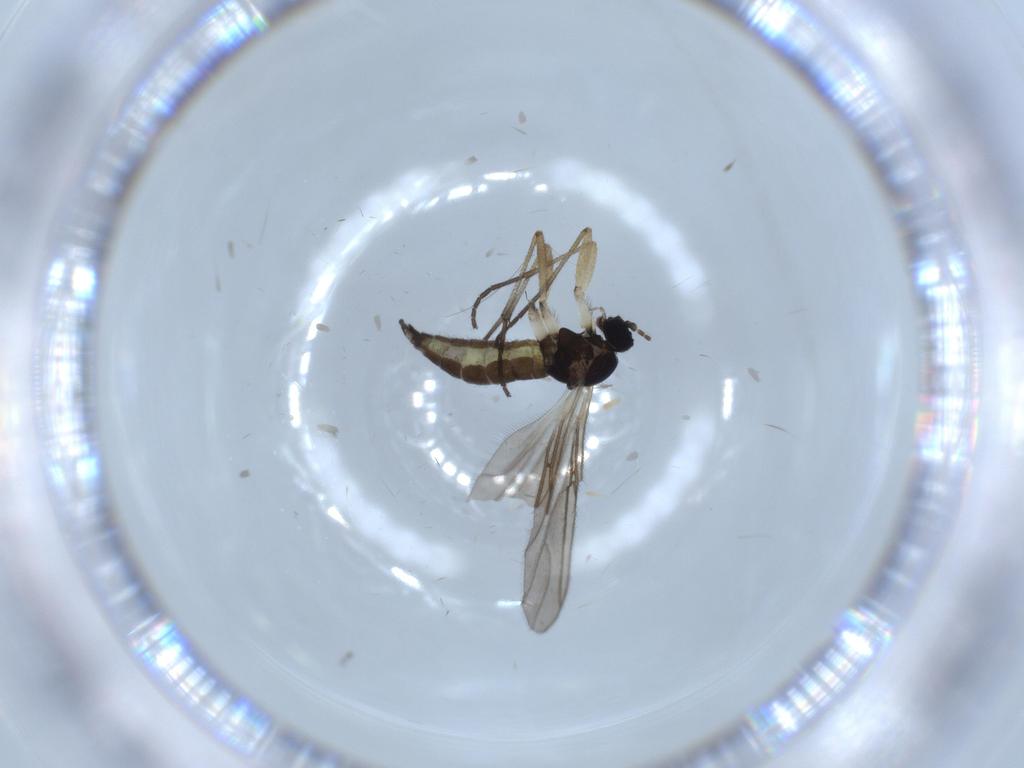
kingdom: Animalia
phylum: Arthropoda
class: Insecta
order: Diptera
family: Sciaridae
